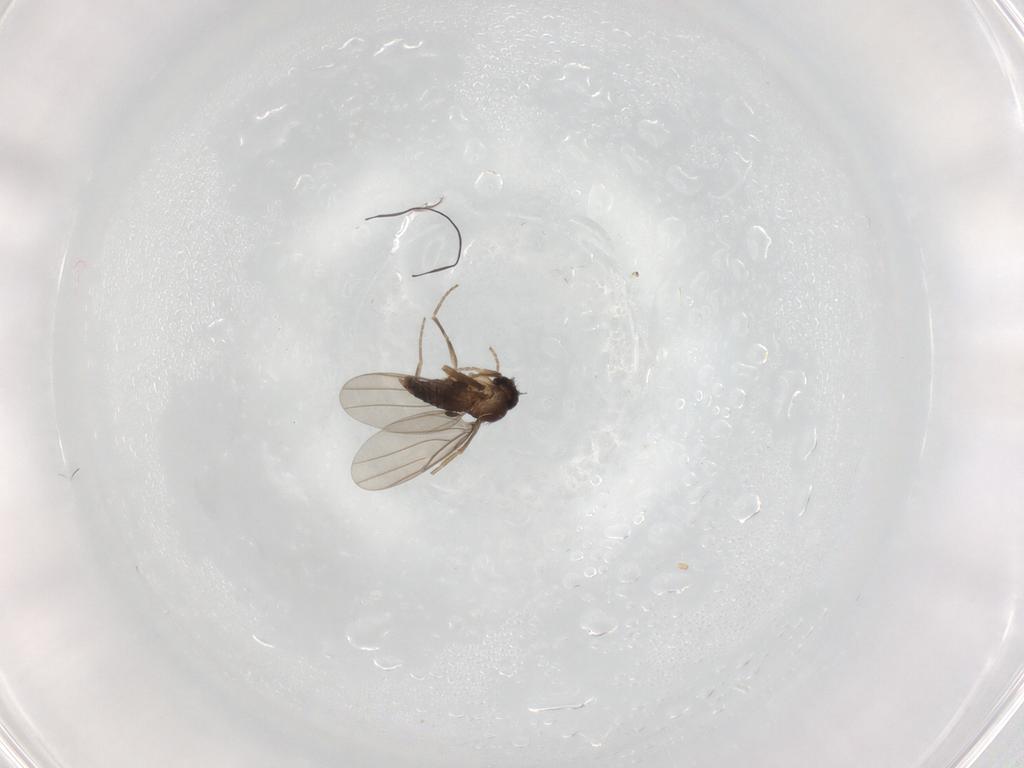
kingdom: Animalia
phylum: Arthropoda
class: Insecta
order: Diptera
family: Phoridae
